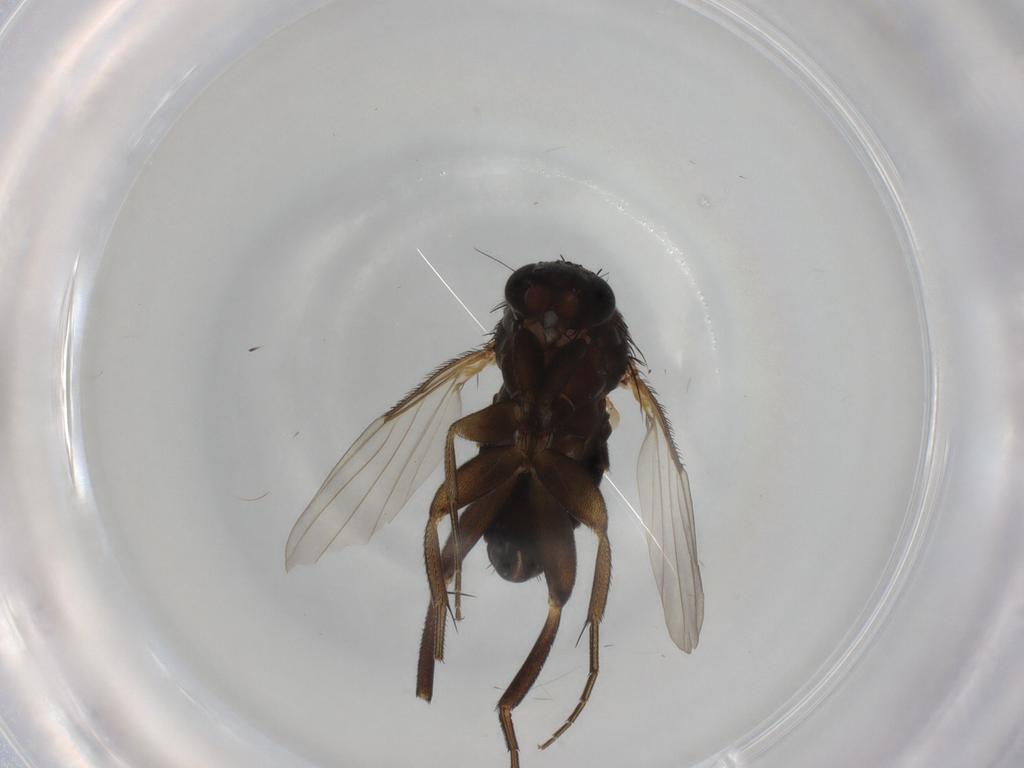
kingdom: Animalia
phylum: Arthropoda
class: Insecta
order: Diptera
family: Phoridae
